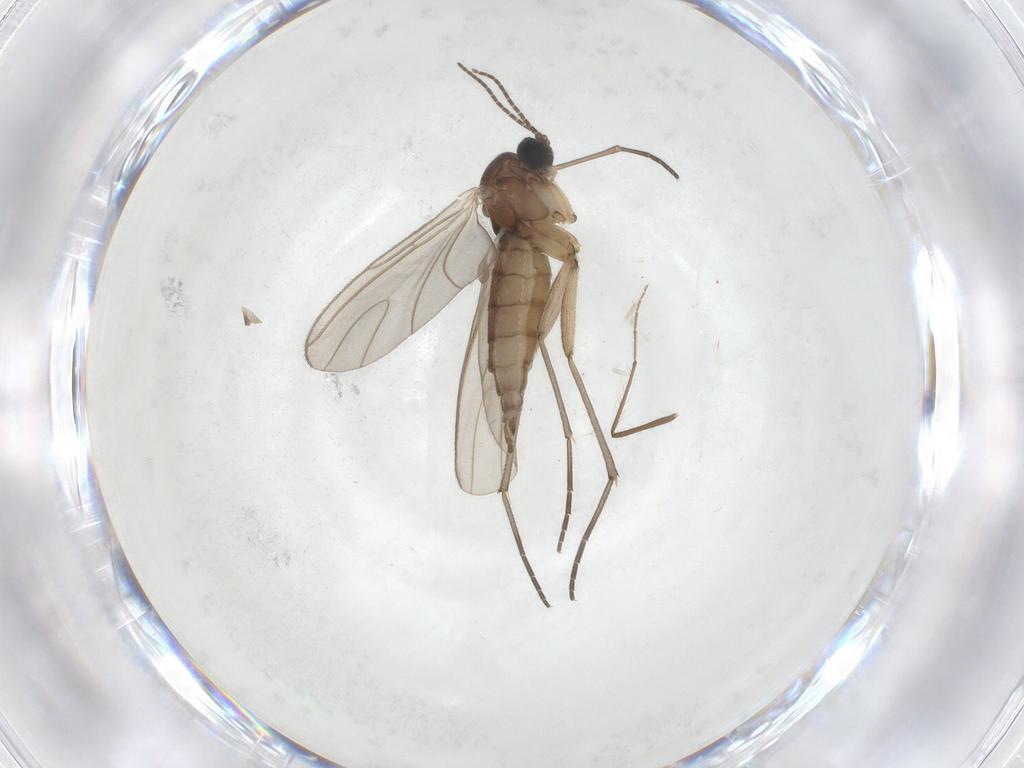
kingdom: Animalia
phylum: Arthropoda
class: Insecta
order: Diptera
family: Sciaridae
